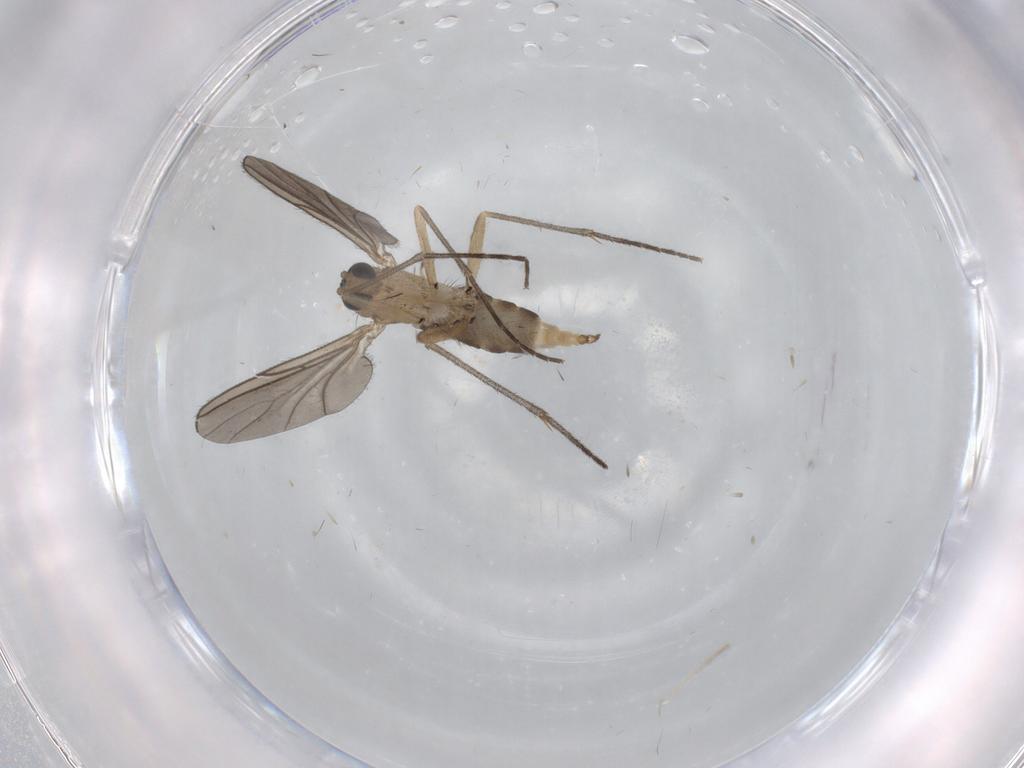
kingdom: Animalia
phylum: Arthropoda
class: Insecta
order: Diptera
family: Sciaridae
